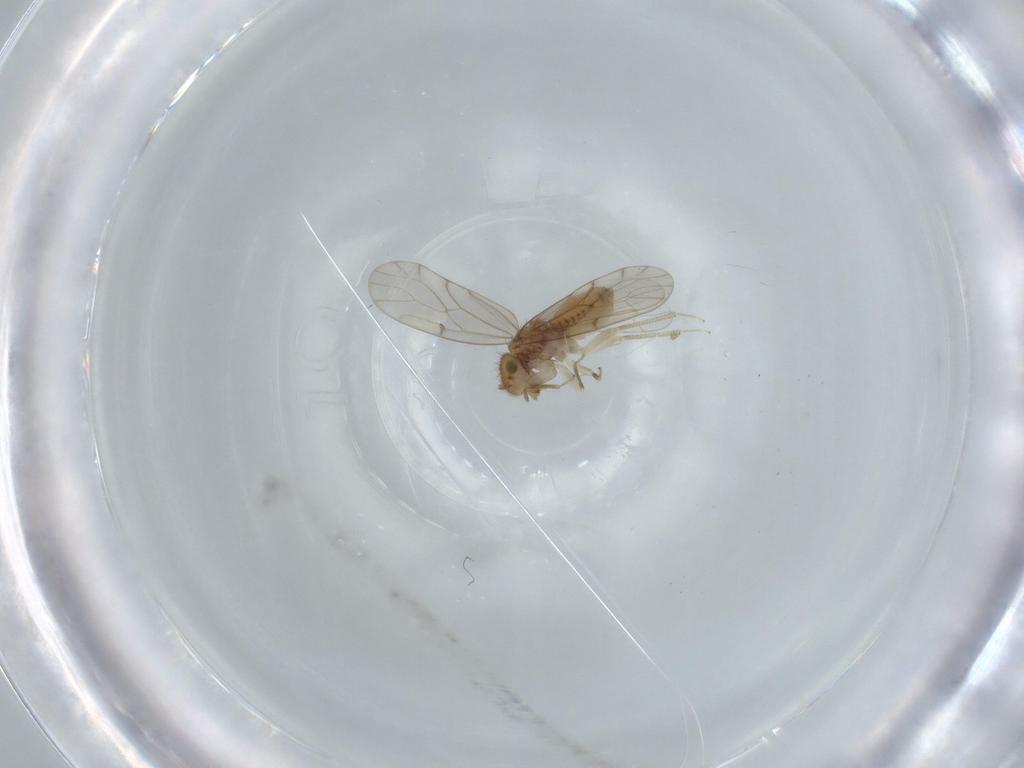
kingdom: Animalia
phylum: Arthropoda
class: Insecta
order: Psocodea
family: Ectopsocidae
